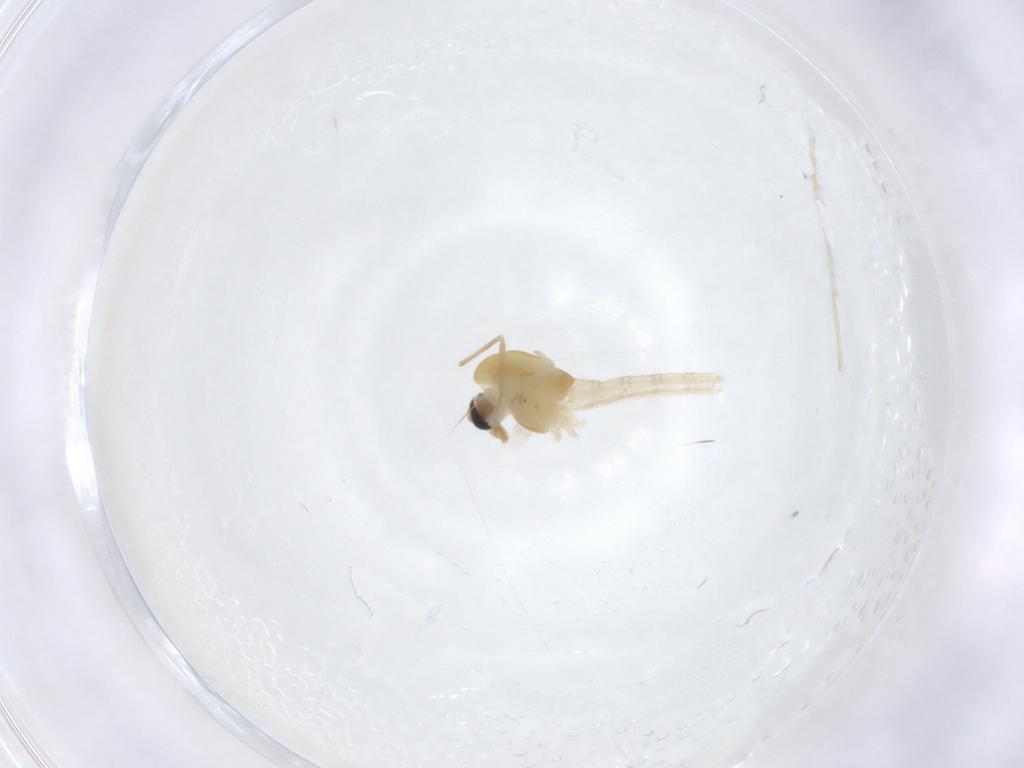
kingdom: Animalia
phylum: Arthropoda
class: Insecta
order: Diptera
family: Chironomidae
